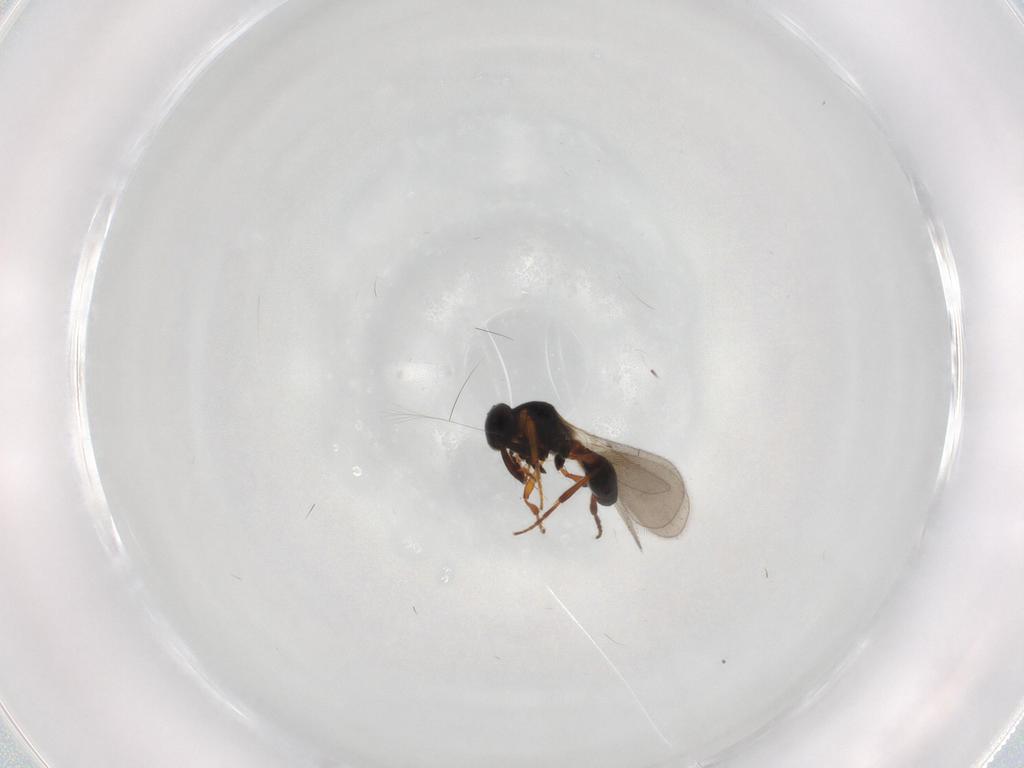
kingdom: Animalia
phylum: Arthropoda
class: Insecta
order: Hymenoptera
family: Platygastridae
